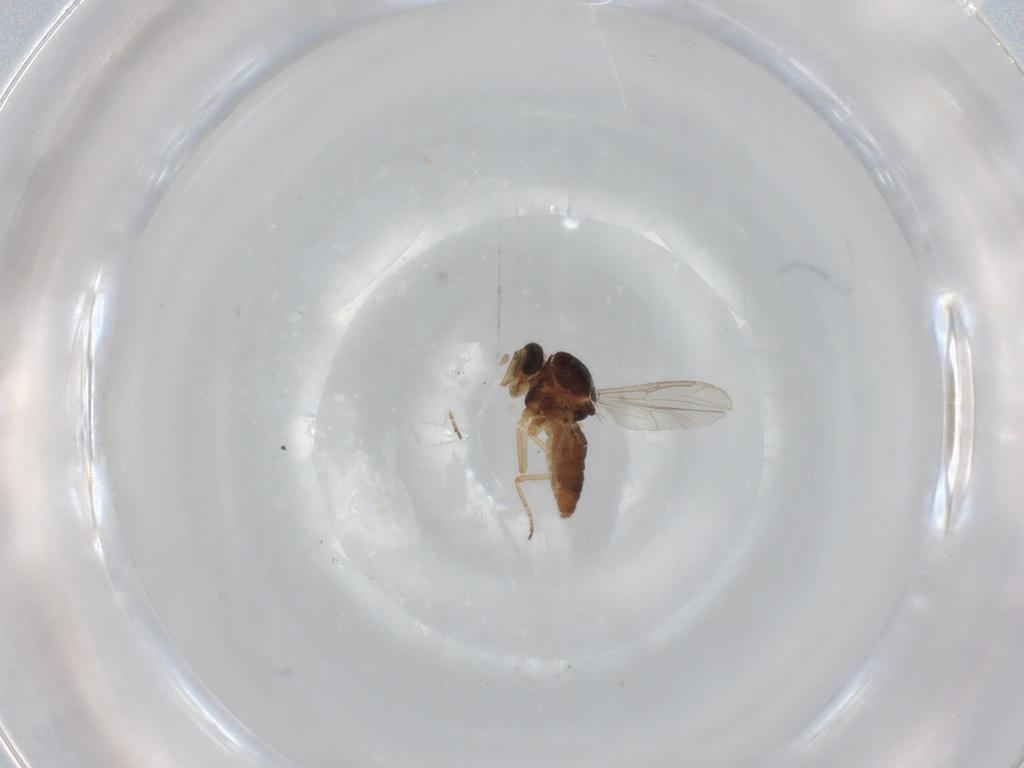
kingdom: Animalia
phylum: Arthropoda
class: Insecta
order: Diptera
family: Ceratopogonidae
